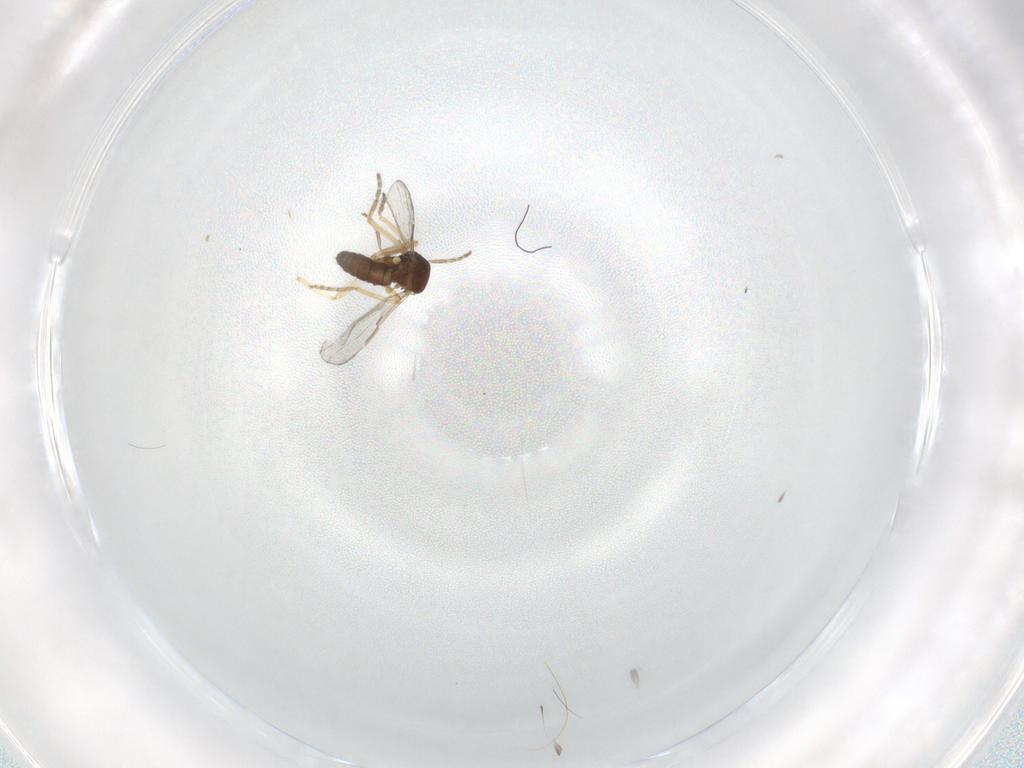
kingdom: Animalia
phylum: Arthropoda
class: Insecta
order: Diptera
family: Ceratopogonidae
